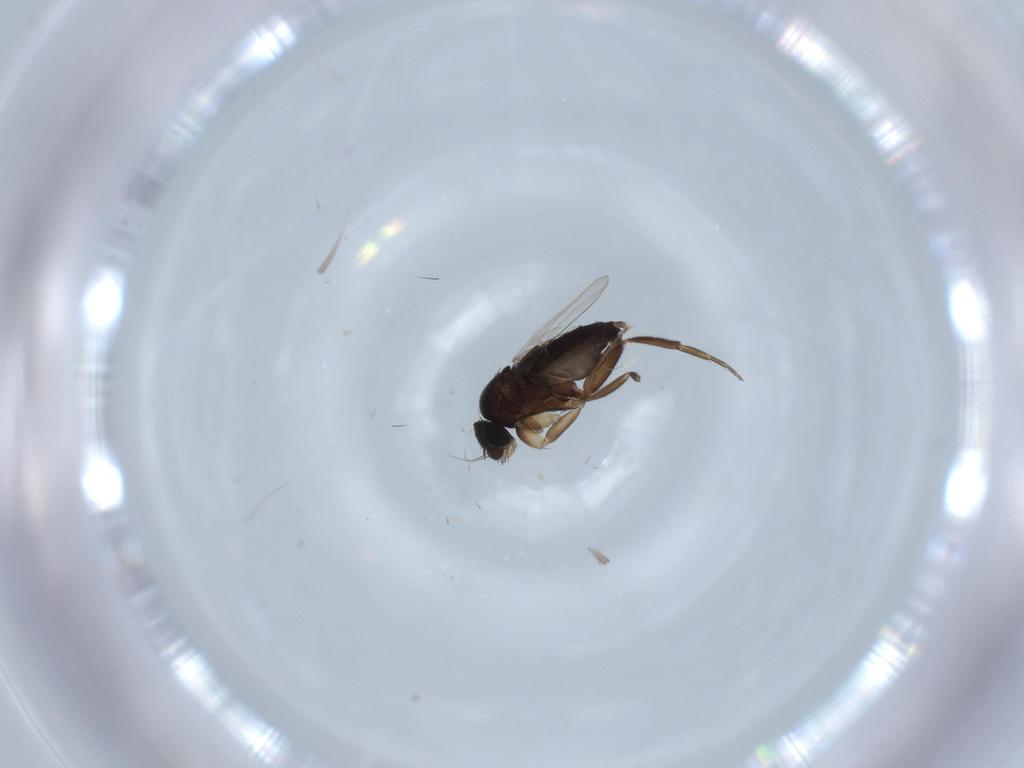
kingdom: Animalia
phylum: Arthropoda
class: Insecta
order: Diptera
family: Phoridae
